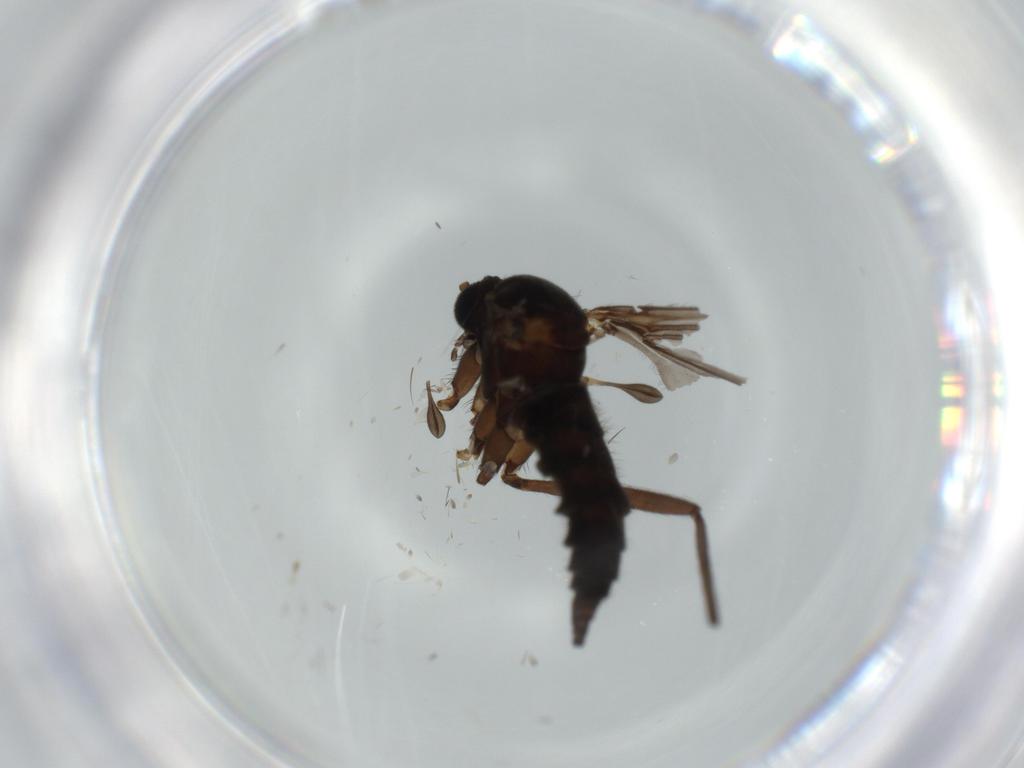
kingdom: Animalia
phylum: Arthropoda
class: Insecta
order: Diptera
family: Sciaridae
